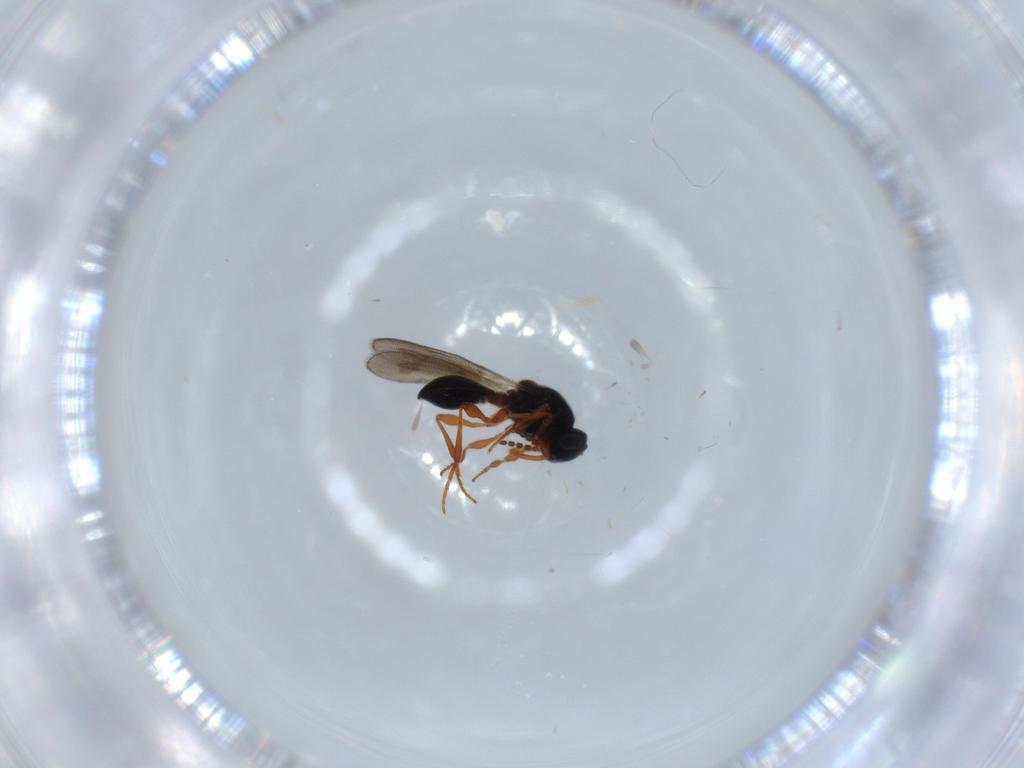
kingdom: Animalia
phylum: Arthropoda
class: Insecta
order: Hymenoptera
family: Platygastridae
